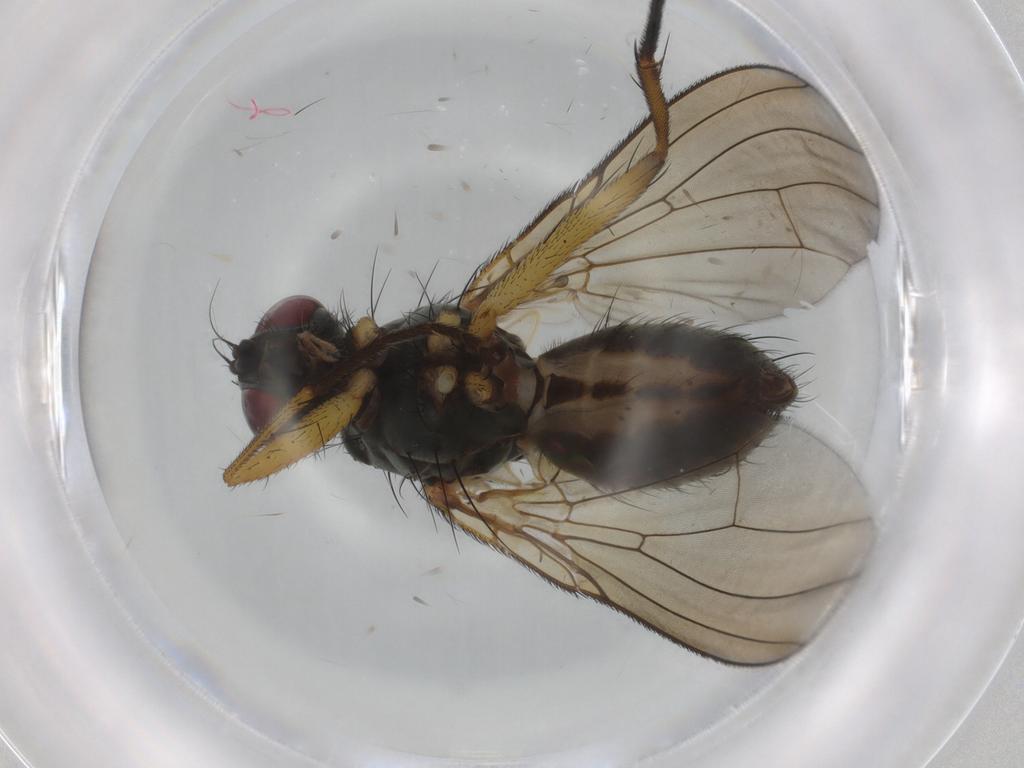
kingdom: Animalia
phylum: Arthropoda
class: Insecta
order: Diptera
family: Muscidae
